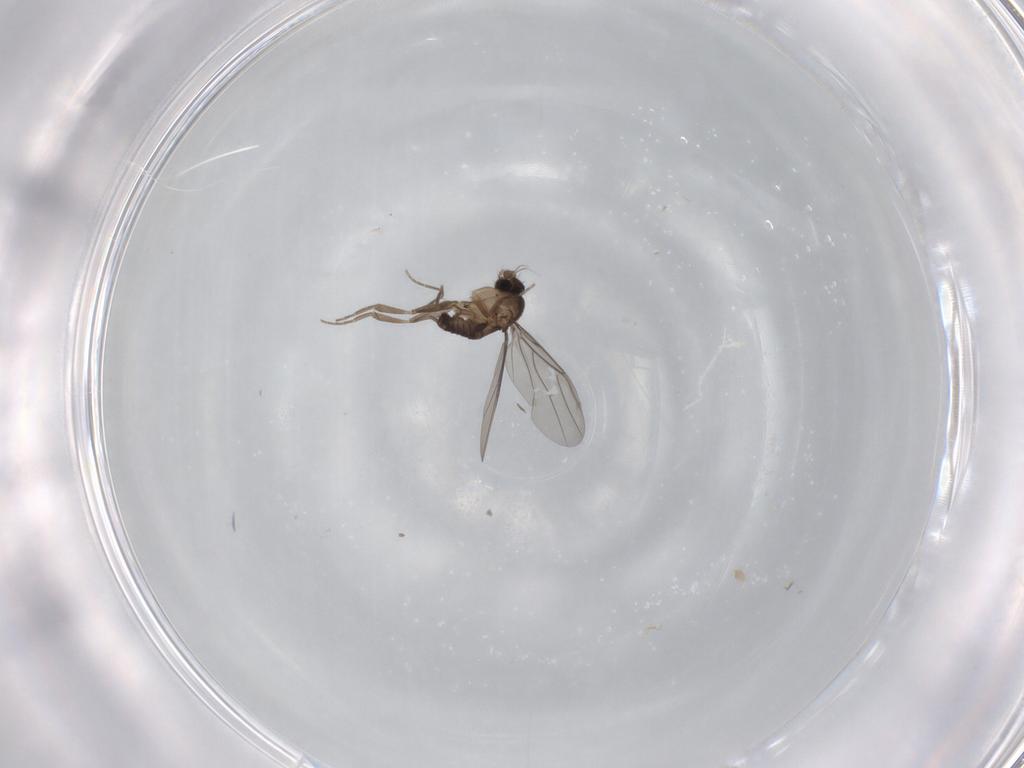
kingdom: Animalia
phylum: Arthropoda
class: Insecta
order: Diptera
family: Phoridae
